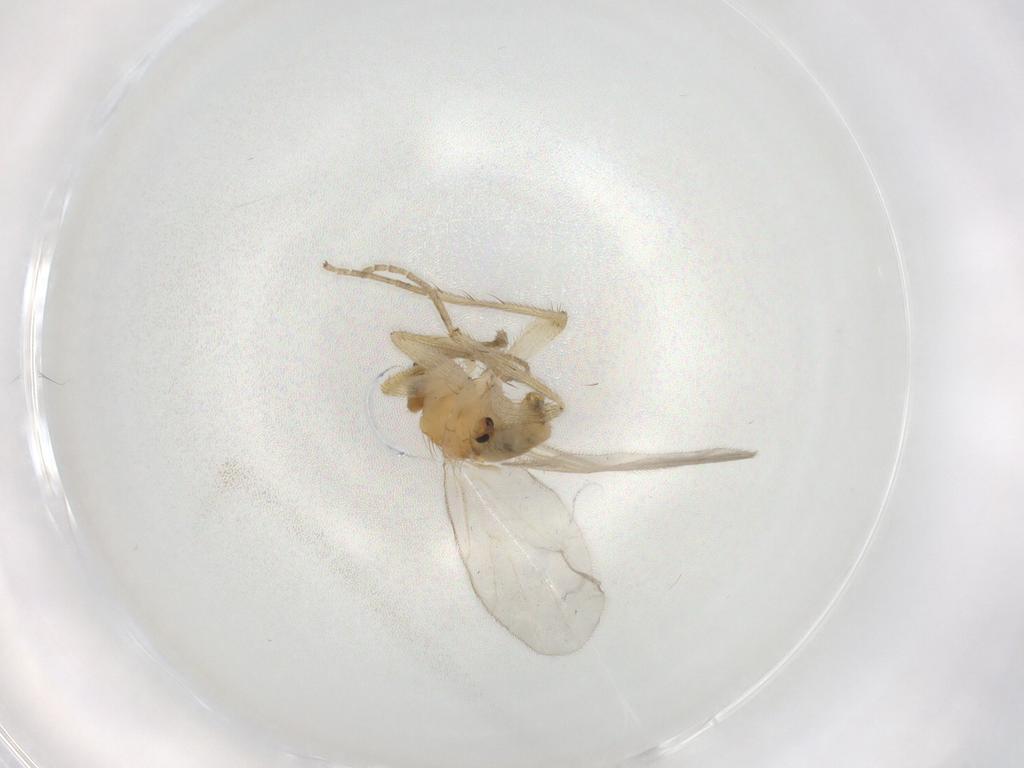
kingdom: Animalia
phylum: Arthropoda
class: Insecta
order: Diptera
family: Hybotidae
